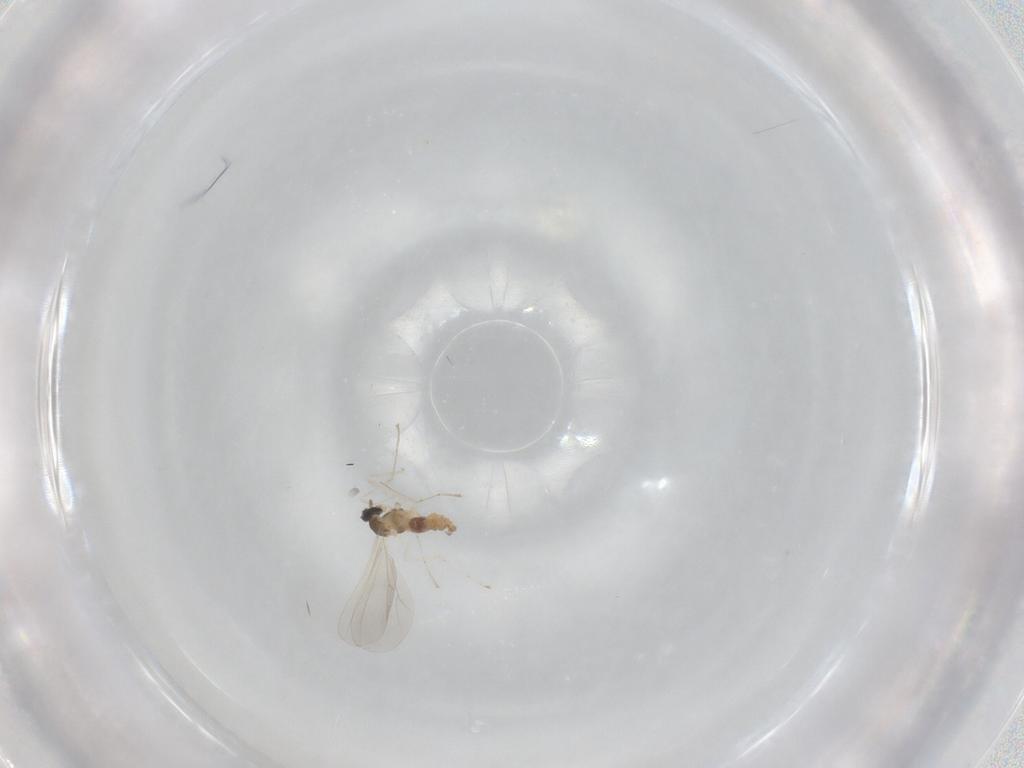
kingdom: Animalia
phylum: Arthropoda
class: Insecta
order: Diptera
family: Cecidomyiidae
